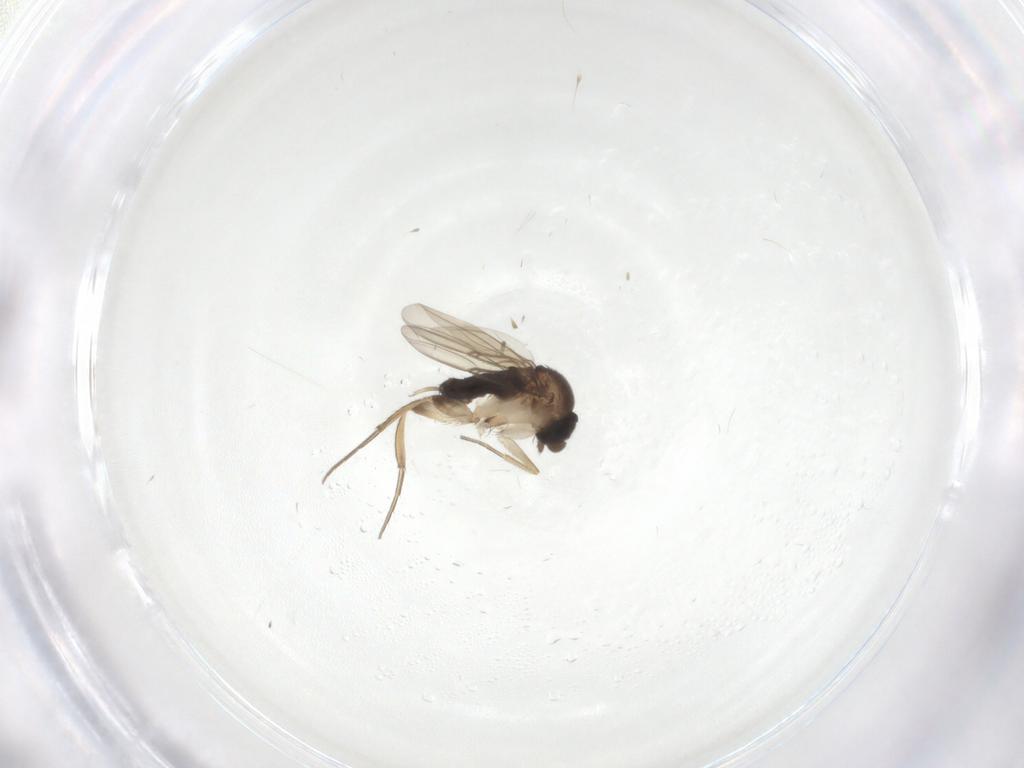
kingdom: Animalia
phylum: Arthropoda
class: Insecta
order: Diptera
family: Phoridae
